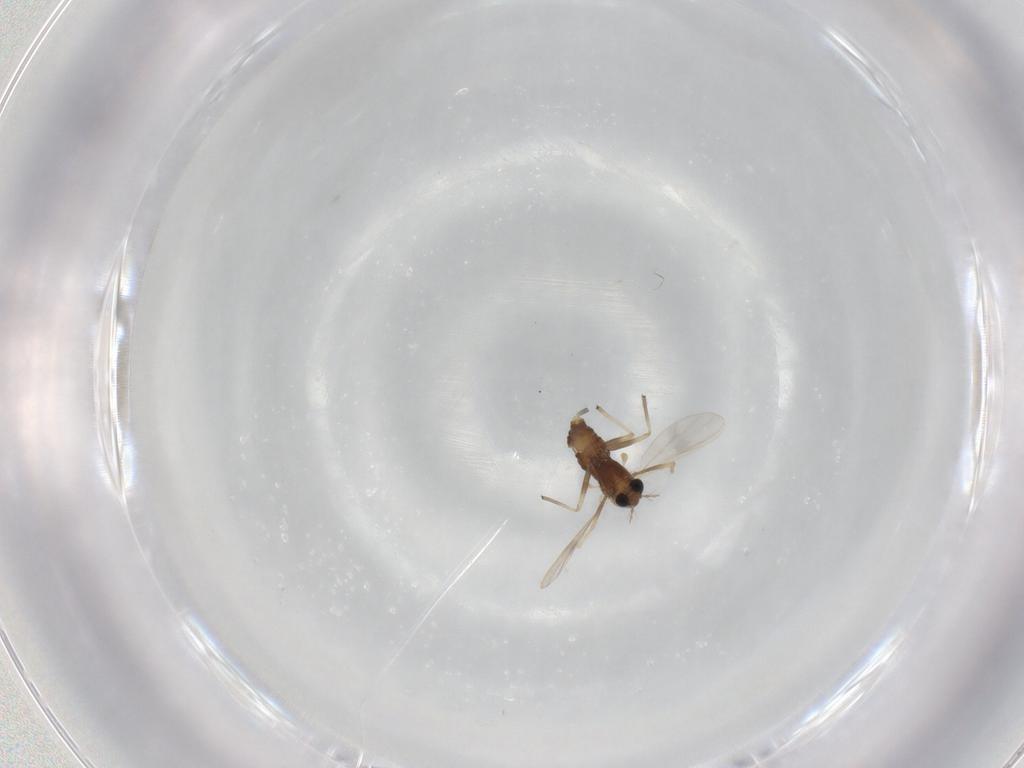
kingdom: Animalia
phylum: Arthropoda
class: Insecta
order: Diptera
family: Chironomidae
